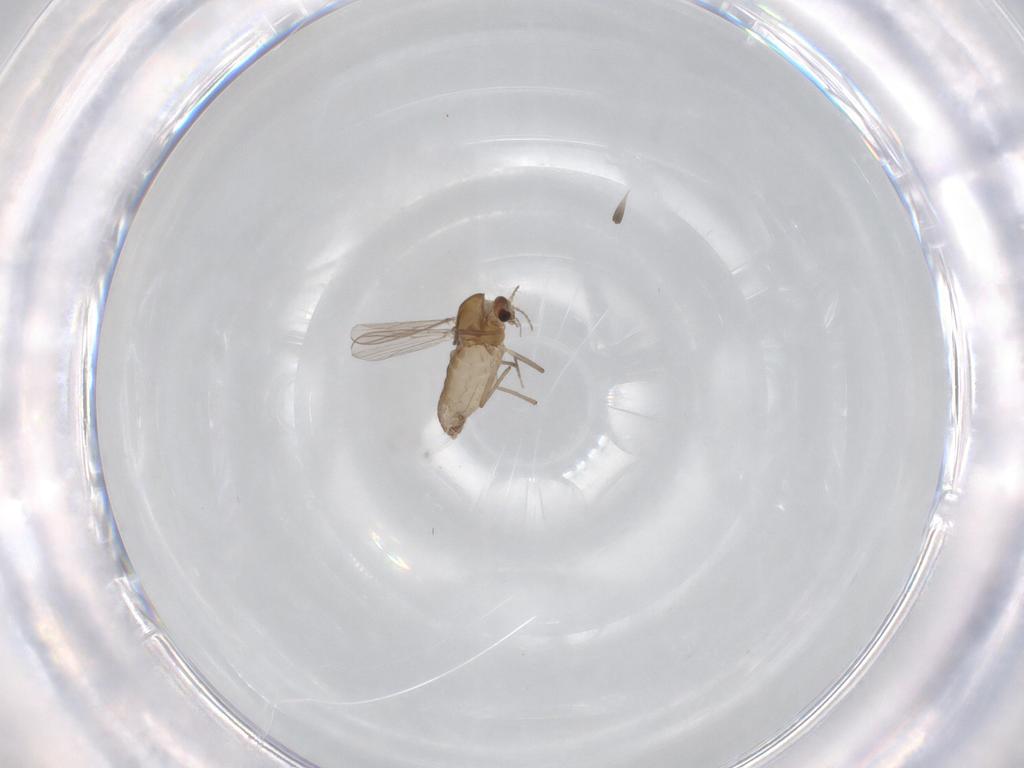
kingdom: Animalia
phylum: Arthropoda
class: Insecta
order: Diptera
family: Chironomidae
